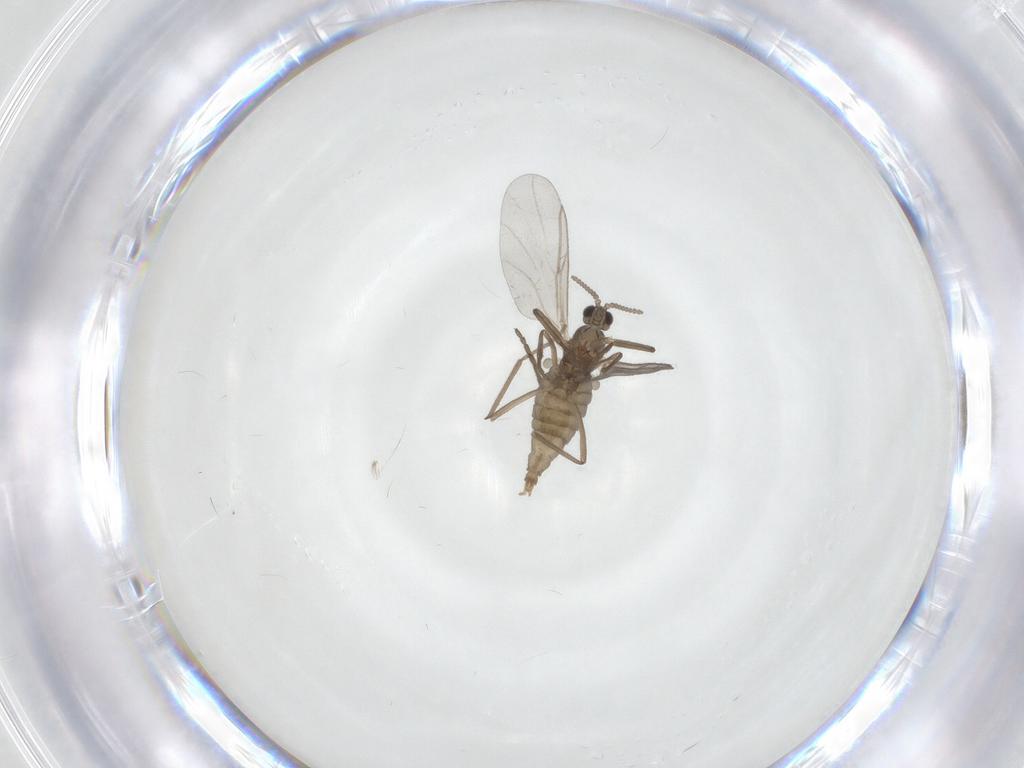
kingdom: Animalia
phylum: Arthropoda
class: Insecta
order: Diptera
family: Cecidomyiidae
